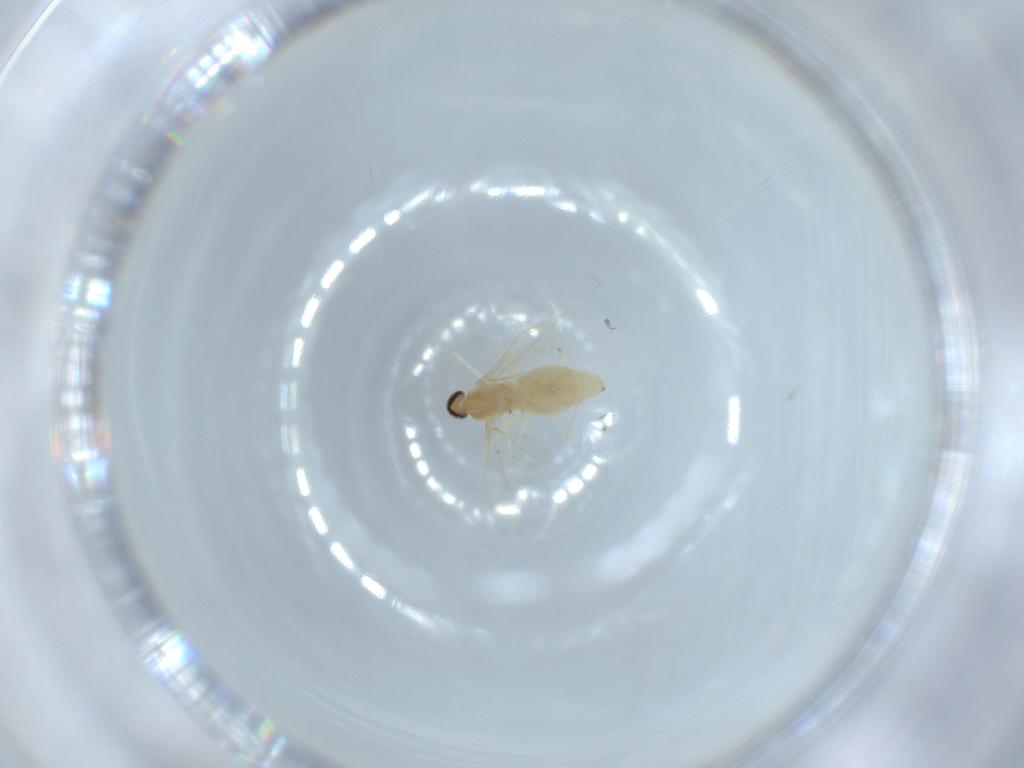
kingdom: Animalia
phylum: Arthropoda
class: Insecta
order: Diptera
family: Cecidomyiidae
